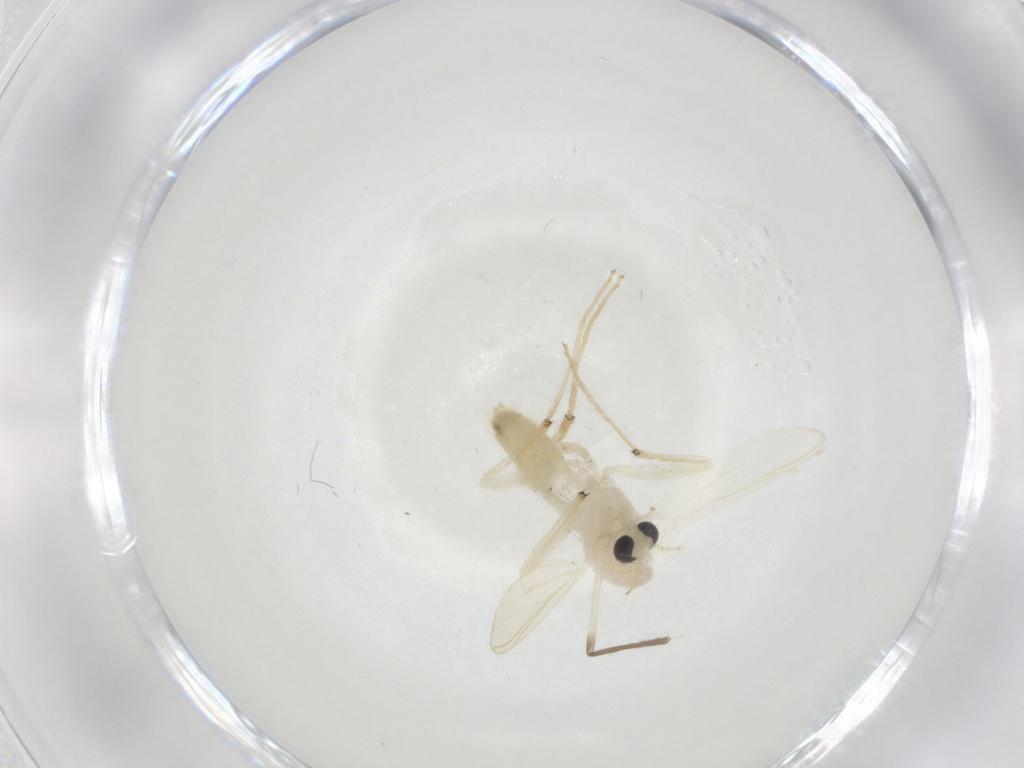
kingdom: Animalia
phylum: Arthropoda
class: Insecta
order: Diptera
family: Chironomidae
